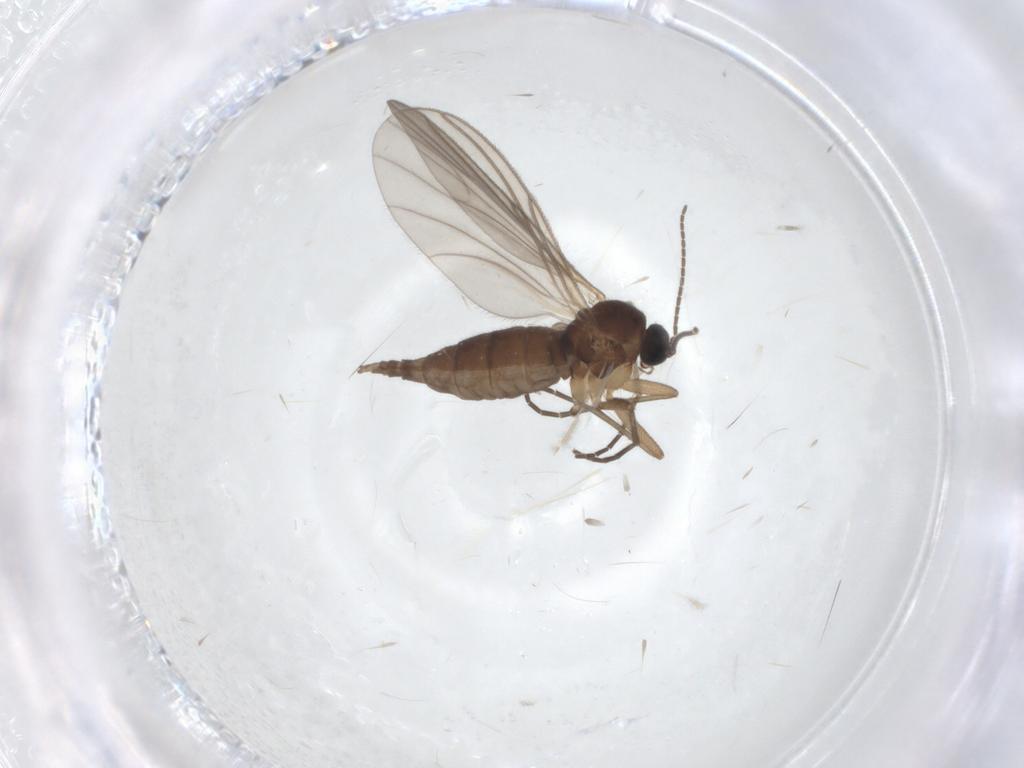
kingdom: Animalia
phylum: Arthropoda
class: Insecta
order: Diptera
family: Sciaridae
